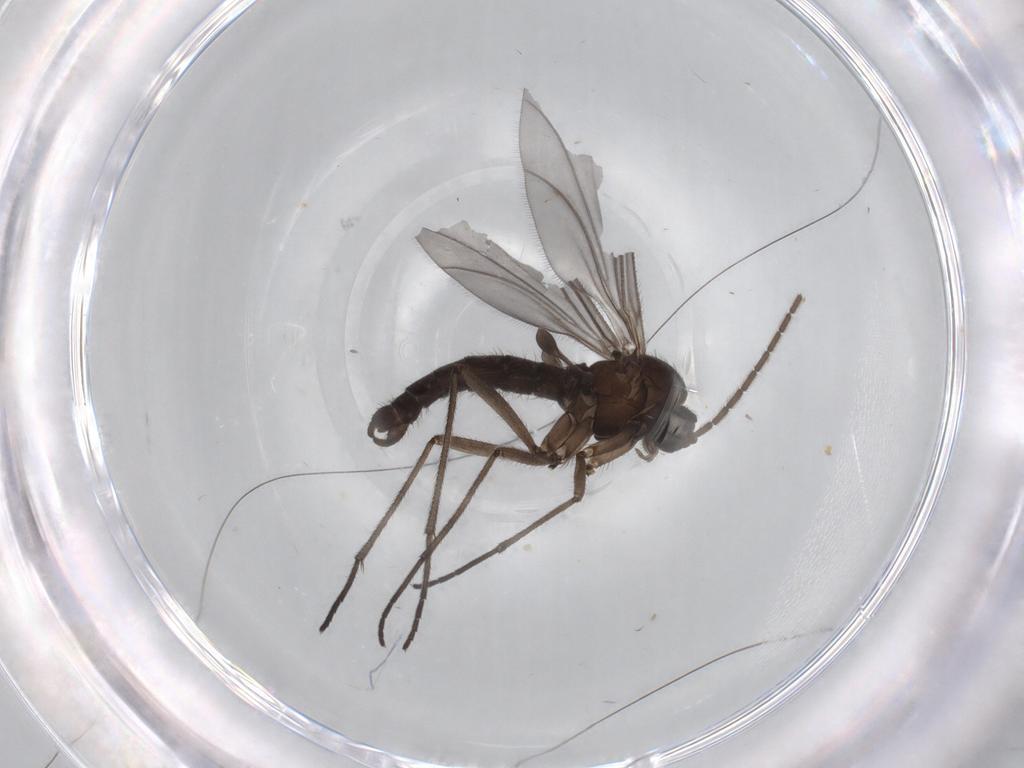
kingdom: Animalia
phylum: Arthropoda
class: Insecta
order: Diptera
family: Sciaridae
